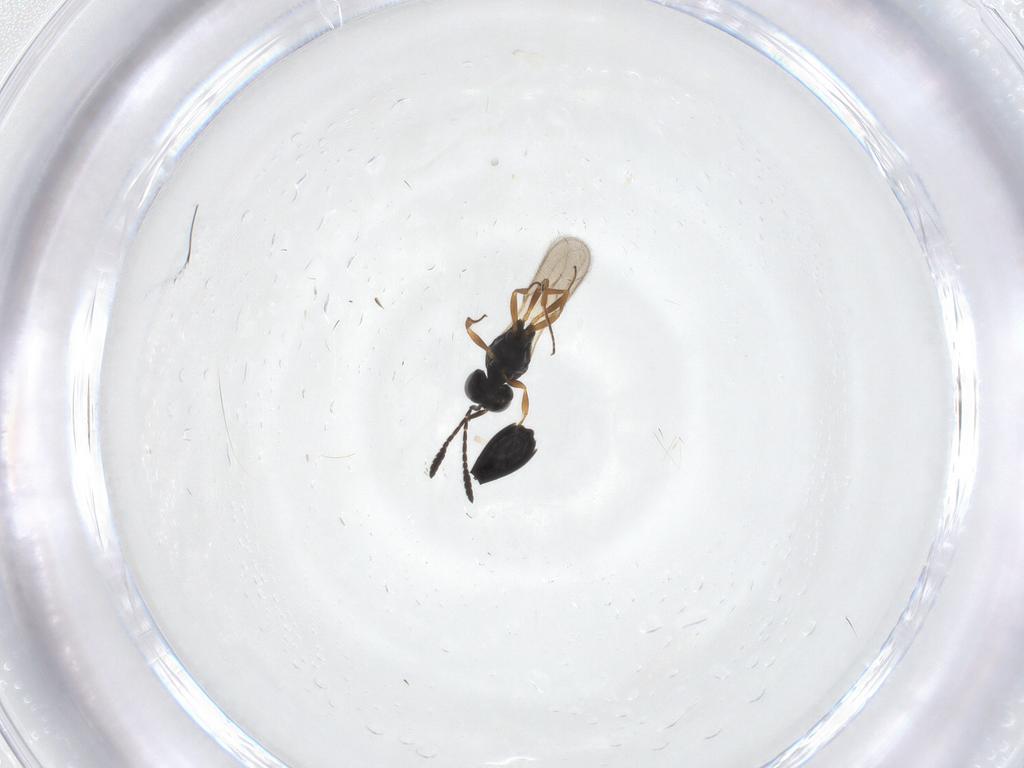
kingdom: Animalia
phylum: Arthropoda
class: Insecta
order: Hymenoptera
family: Scelionidae
